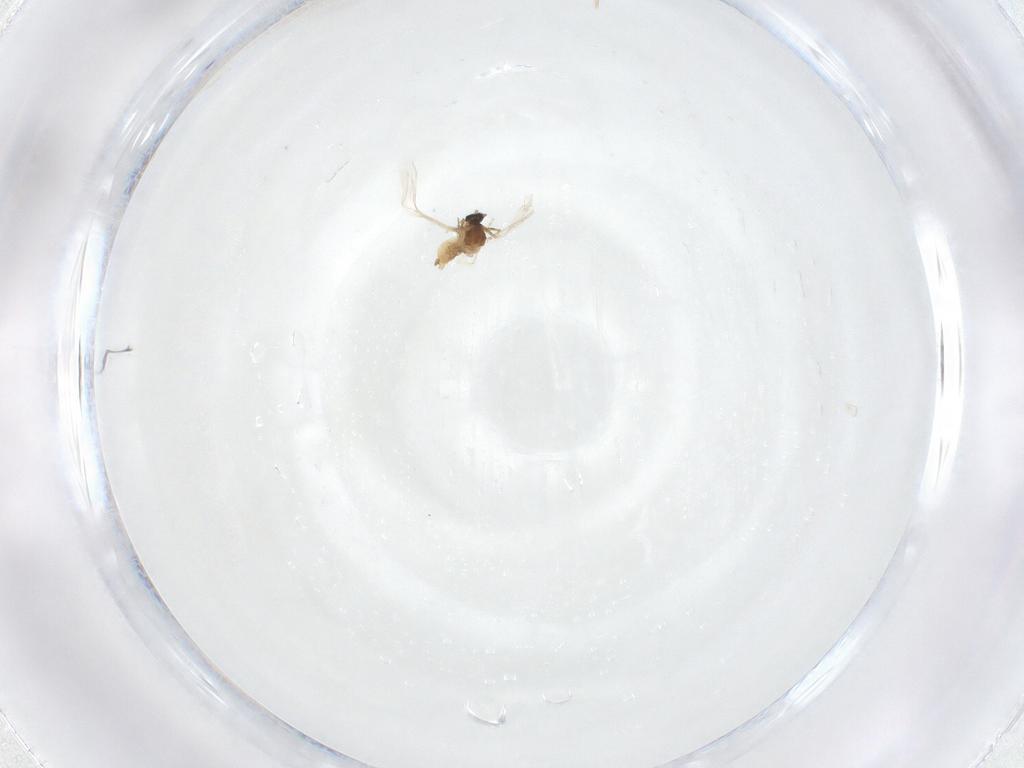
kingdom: Animalia
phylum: Arthropoda
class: Insecta
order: Diptera
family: Cecidomyiidae
